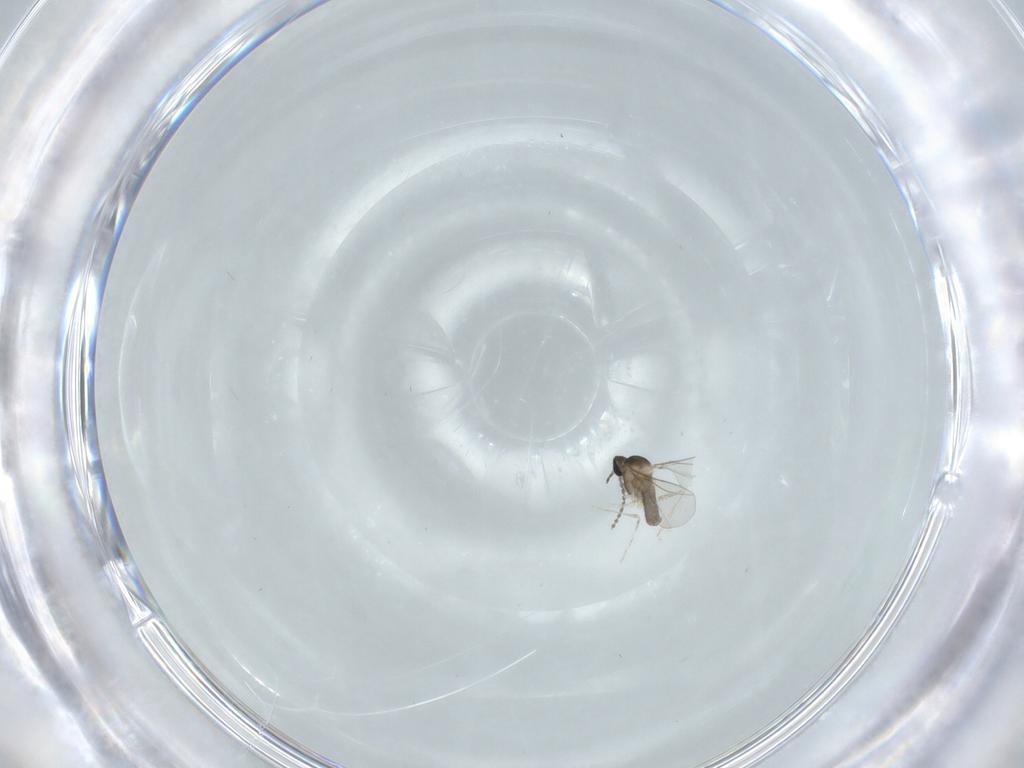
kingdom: Animalia
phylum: Arthropoda
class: Insecta
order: Diptera
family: Cecidomyiidae
